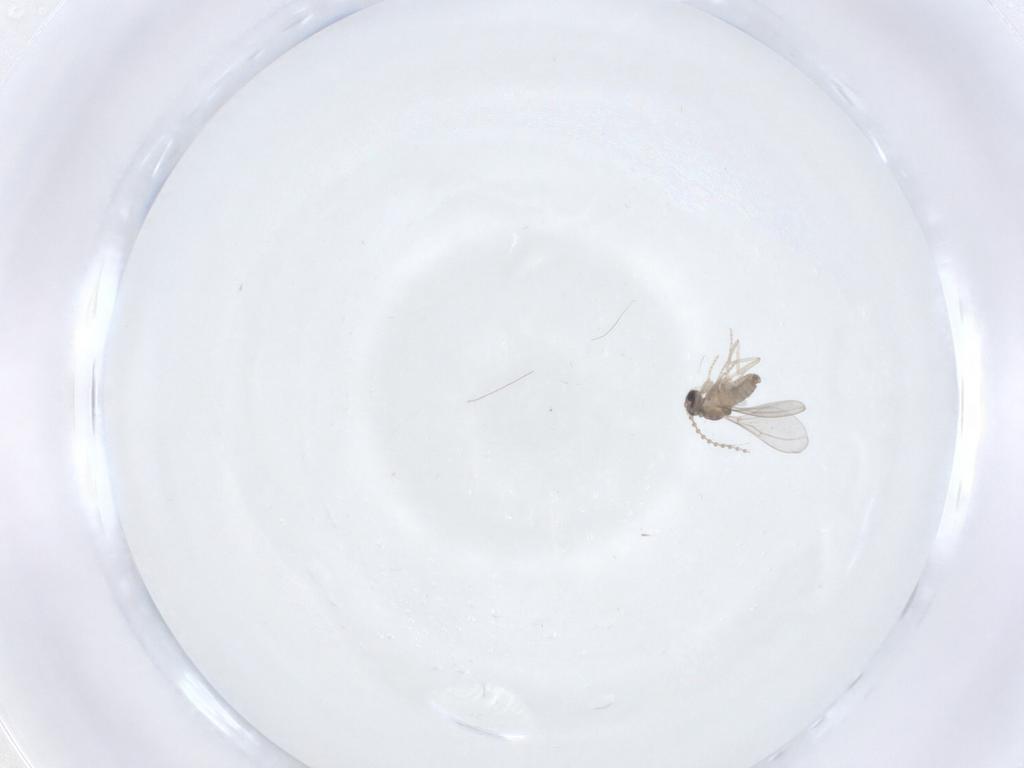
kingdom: Animalia
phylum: Arthropoda
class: Insecta
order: Diptera
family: Cecidomyiidae
